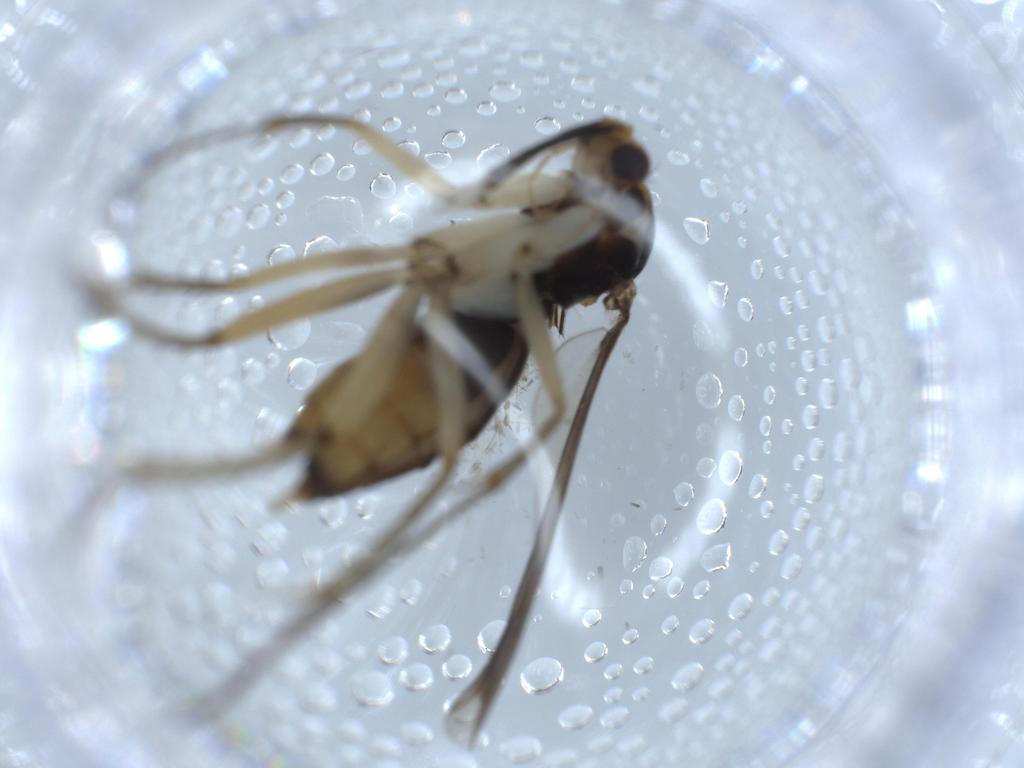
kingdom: Animalia
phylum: Arthropoda
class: Insecta
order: Diptera
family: Mycetophilidae
